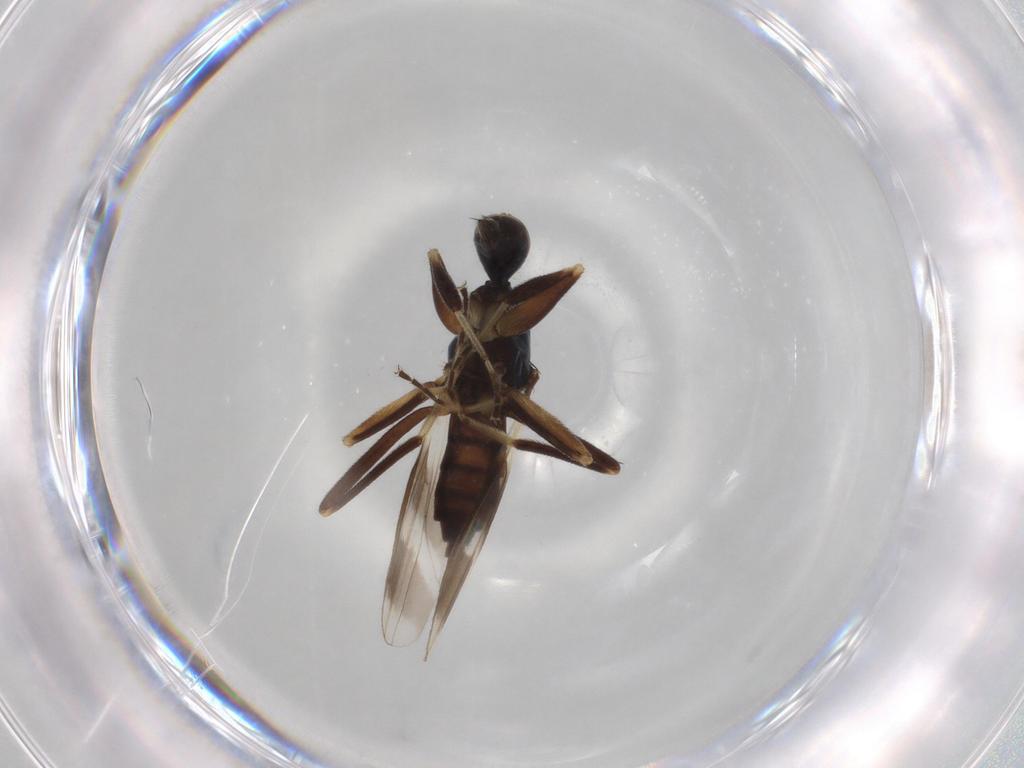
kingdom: Animalia
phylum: Arthropoda
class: Insecta
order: Diptera
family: Hybotidae
